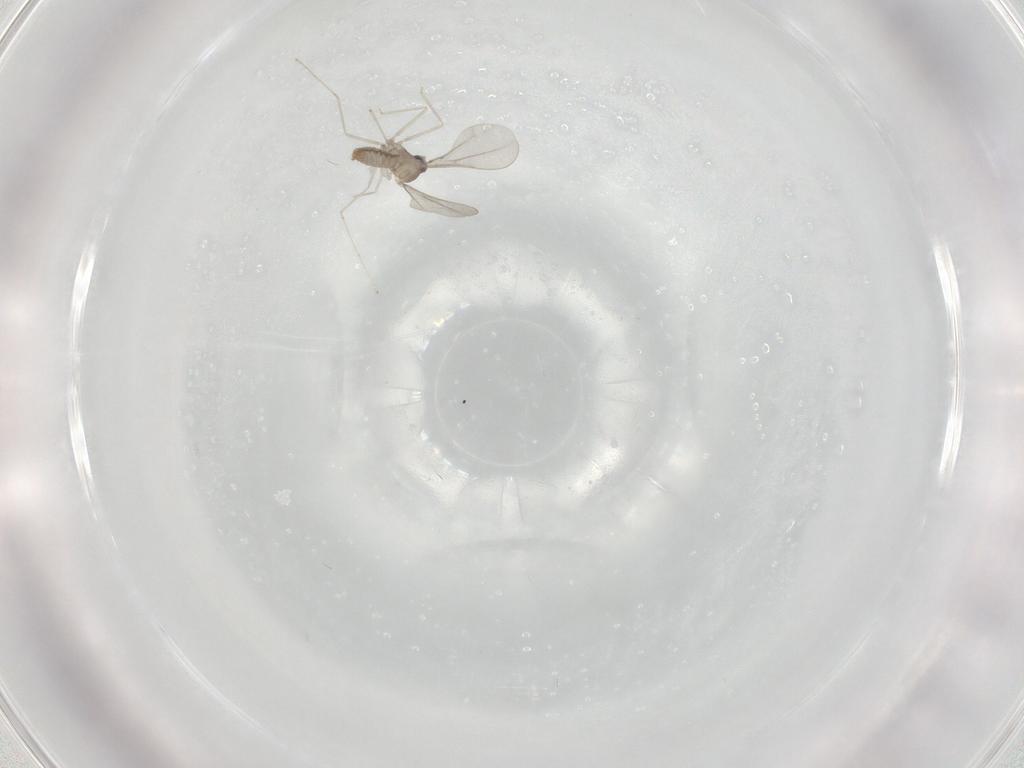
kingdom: Animalia
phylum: Arthropoda
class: Insecta
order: Diptera
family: Cecidomyiidae
